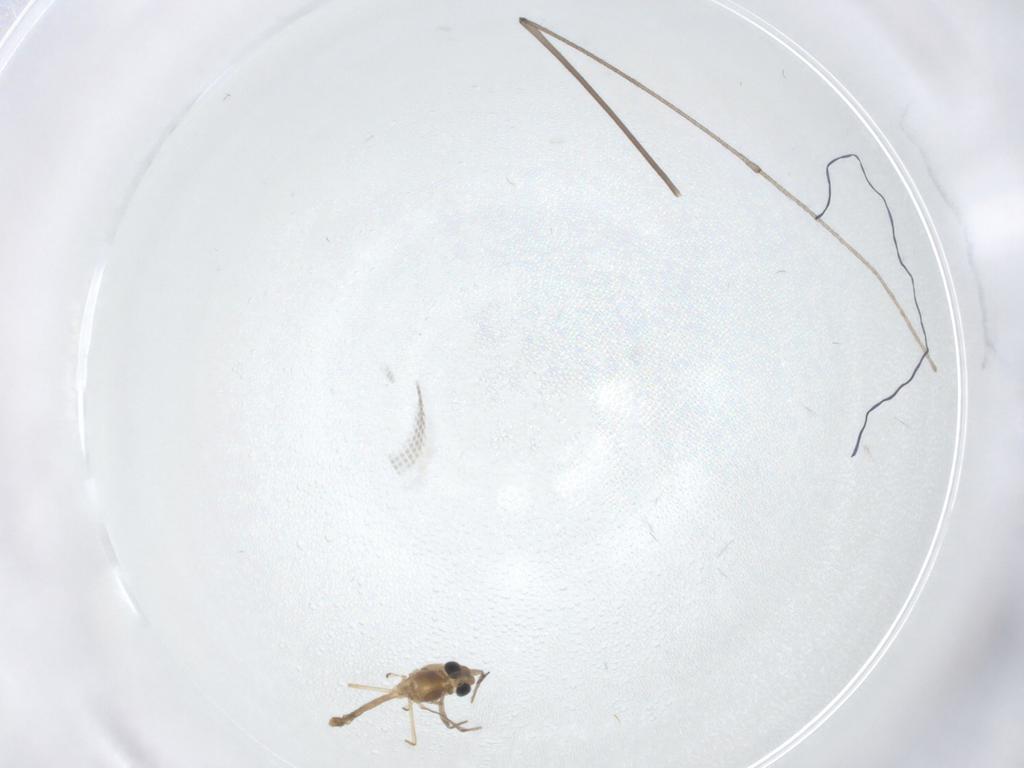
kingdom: Animalia
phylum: Arthropoda
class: Insecta
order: Diptera
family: Chironomidae
